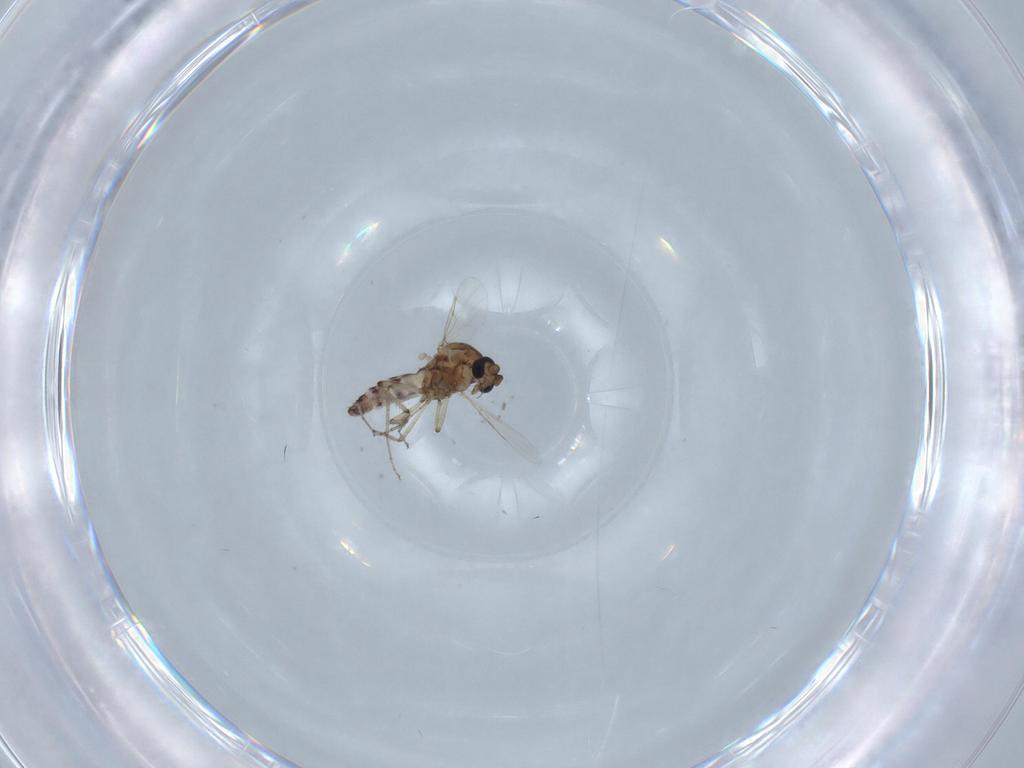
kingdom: Animalia
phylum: Arthropoda
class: Insecta
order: Diptera
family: Ceratopogonidae
